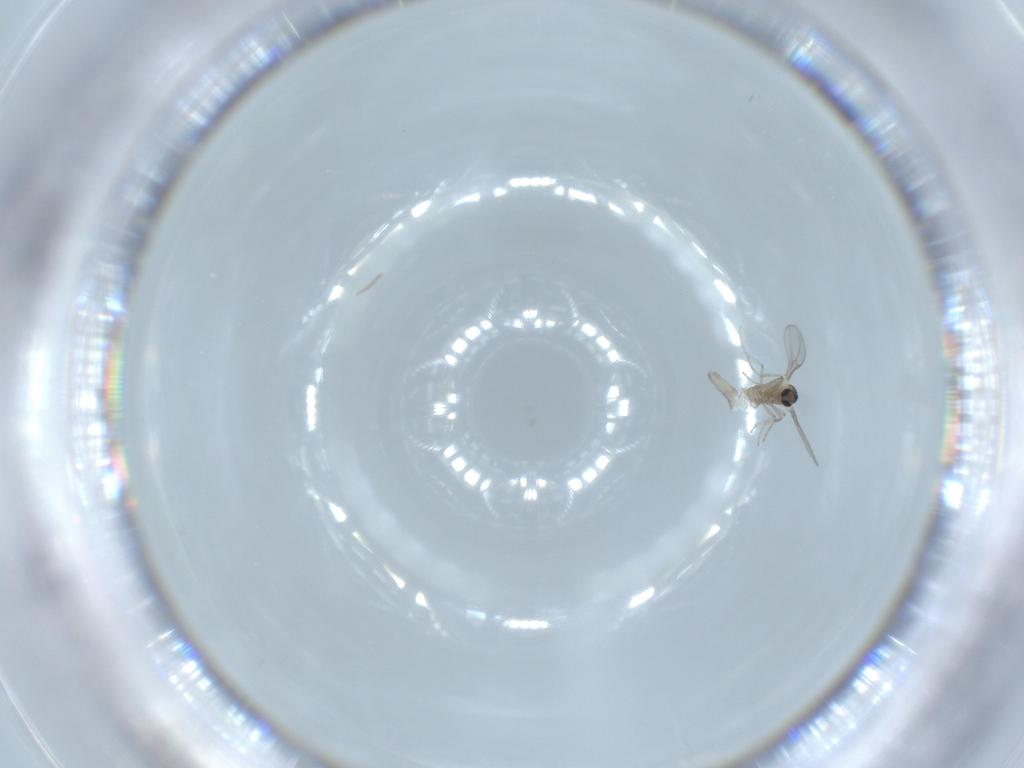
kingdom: Animalia
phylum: Arthropoda
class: Insecta
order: Diptera
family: Cecidomyiidae
